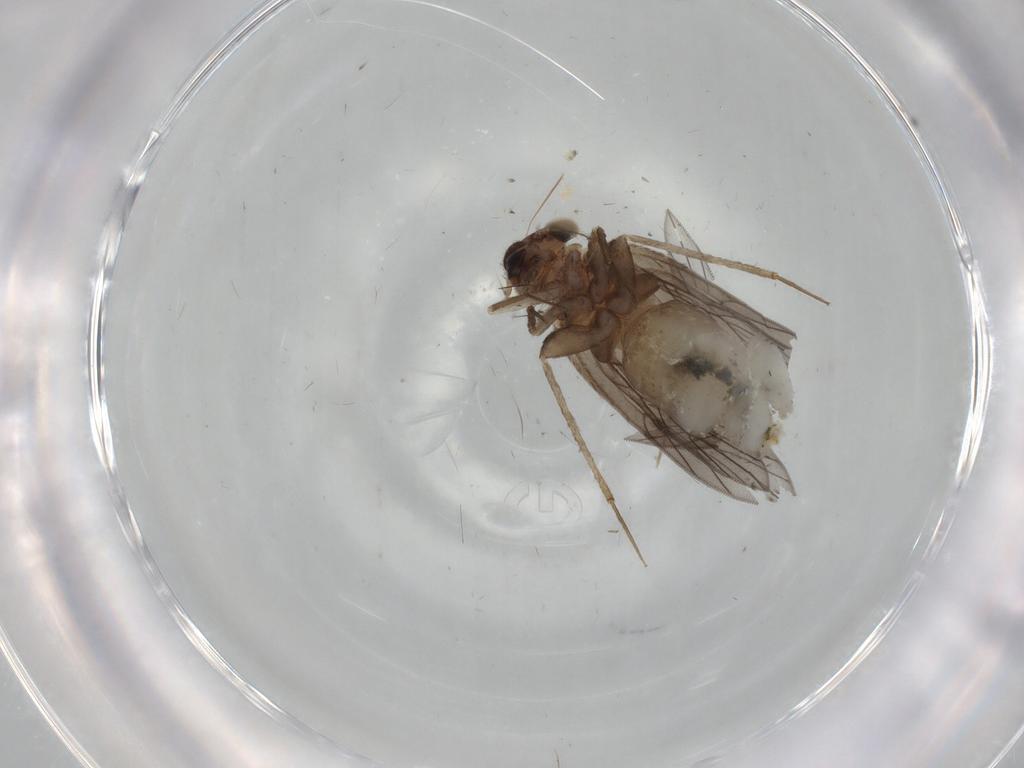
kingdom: Animalia
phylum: Arthropoda
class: Insecta
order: Psocodea
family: Lepidopsocidae
